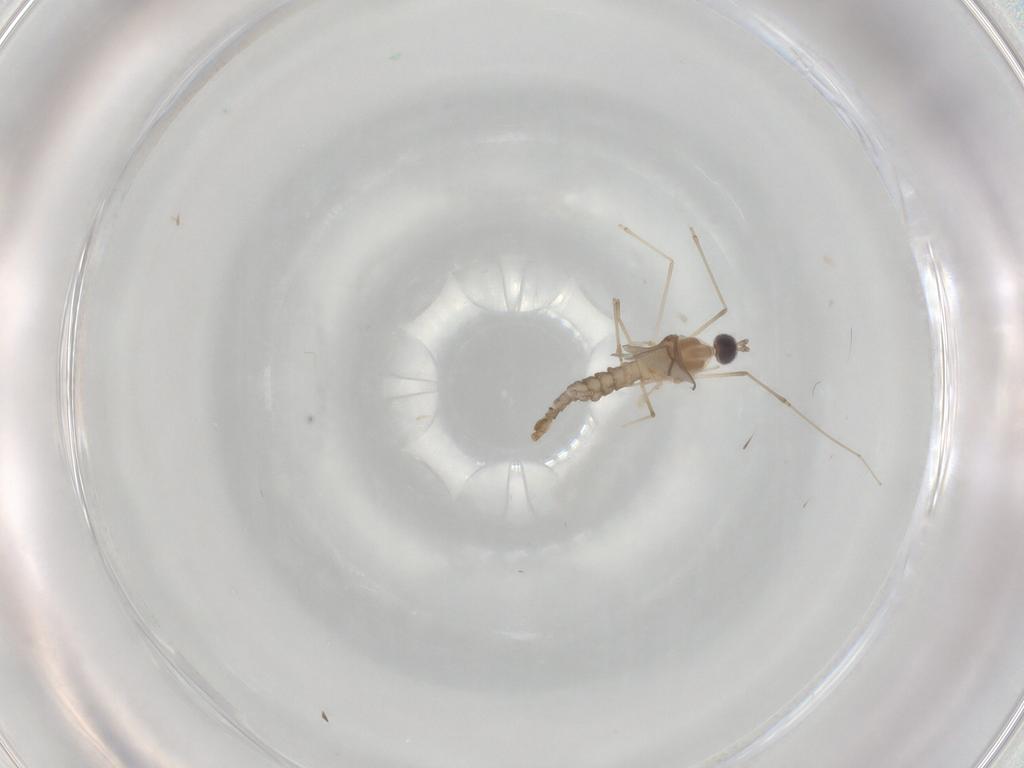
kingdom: Animalia
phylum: Arthropoda
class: Insecta
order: Diptera
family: Cecidomyiidae
